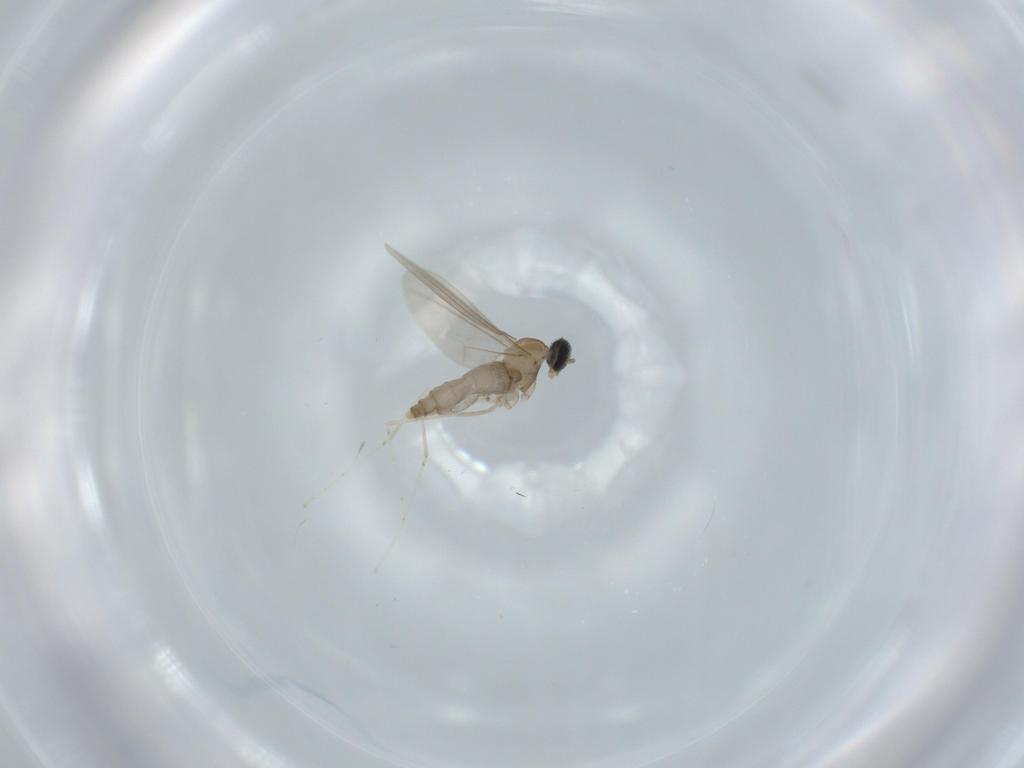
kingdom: Animalia
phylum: Arthropoda
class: Insecta
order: Diptera
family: Cecidomyiidae
